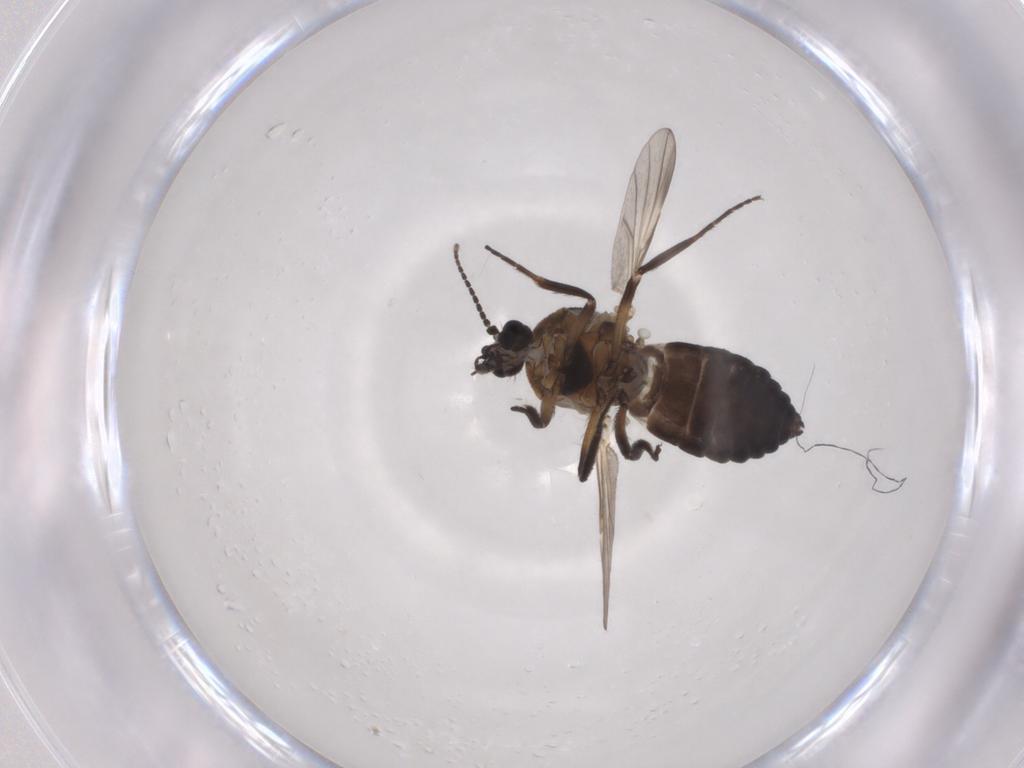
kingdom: Animalia
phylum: Arthropoda
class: Insecta
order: Diptera
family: Ceratopogonidae
